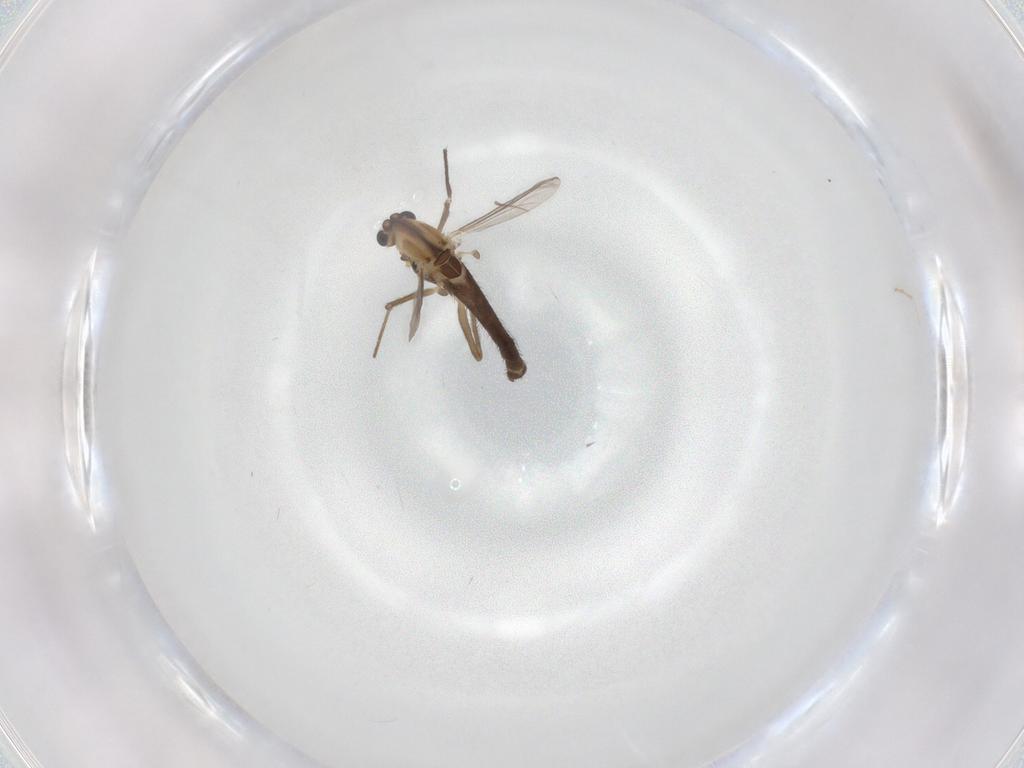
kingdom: Animalia
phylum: Arthropoda
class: Insecta
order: Diptera
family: Chironomidae
